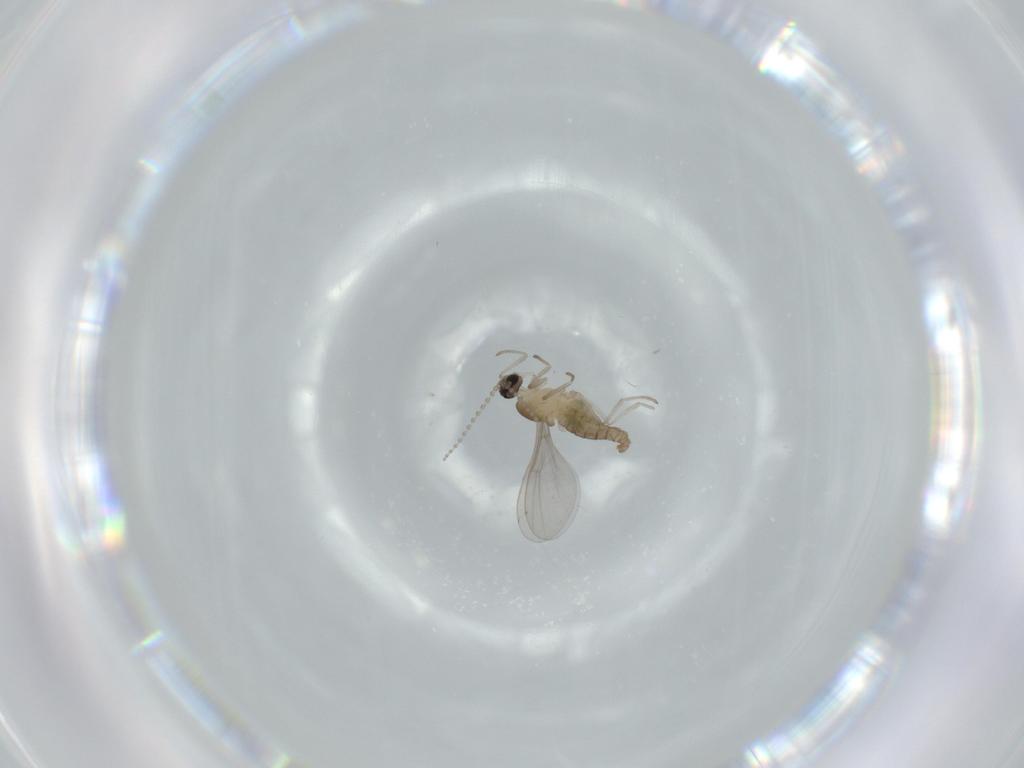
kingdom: Animalia
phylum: Arthropoda
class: Insecta
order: Diptera
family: Cecidomyiidae
